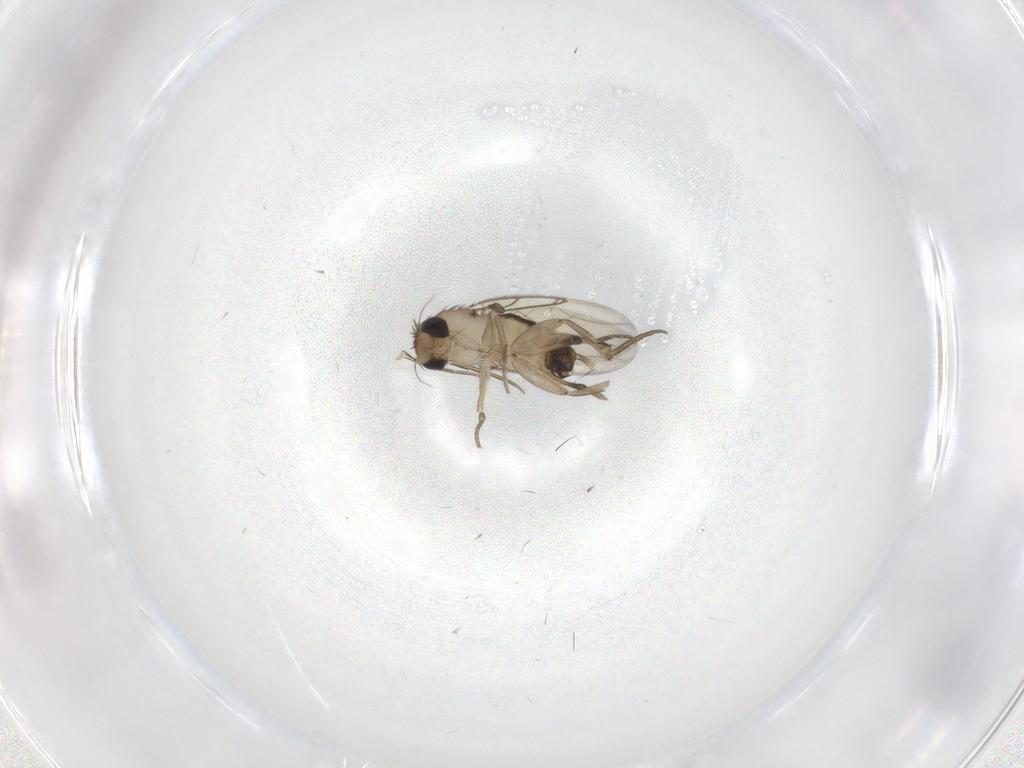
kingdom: Animalia
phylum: Arthropoda
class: Insecta
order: Diptera
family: Phoridae
